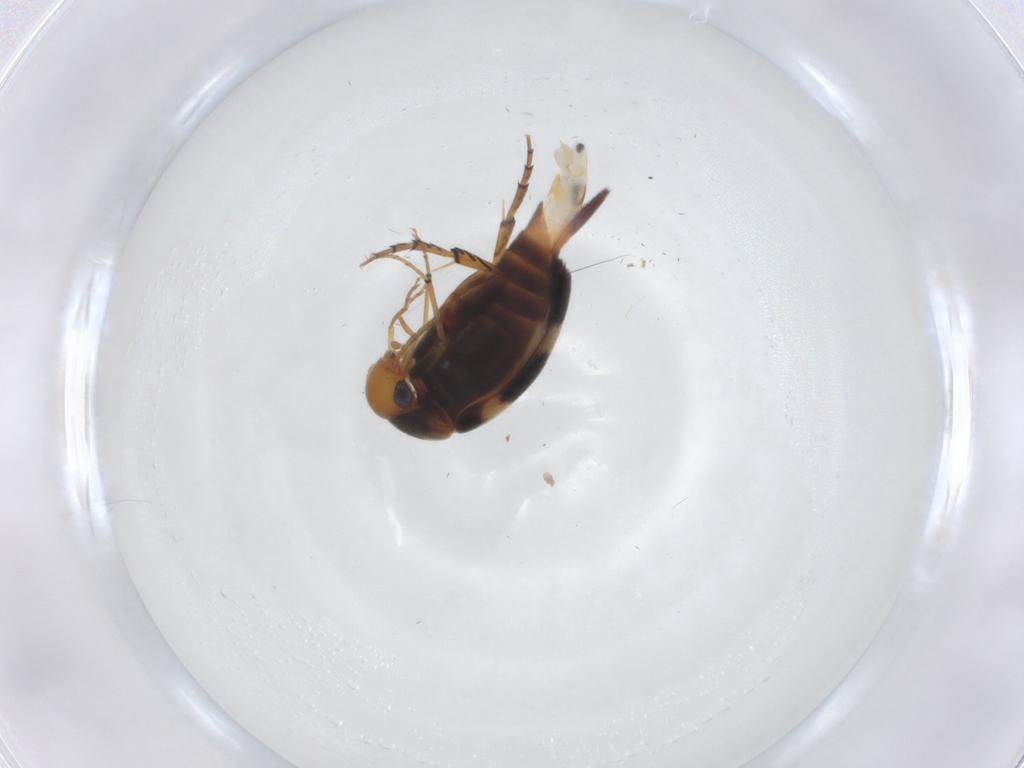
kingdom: Animalia
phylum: Arthropoda
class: Insecta
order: Coleoptera
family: Mordellidae
